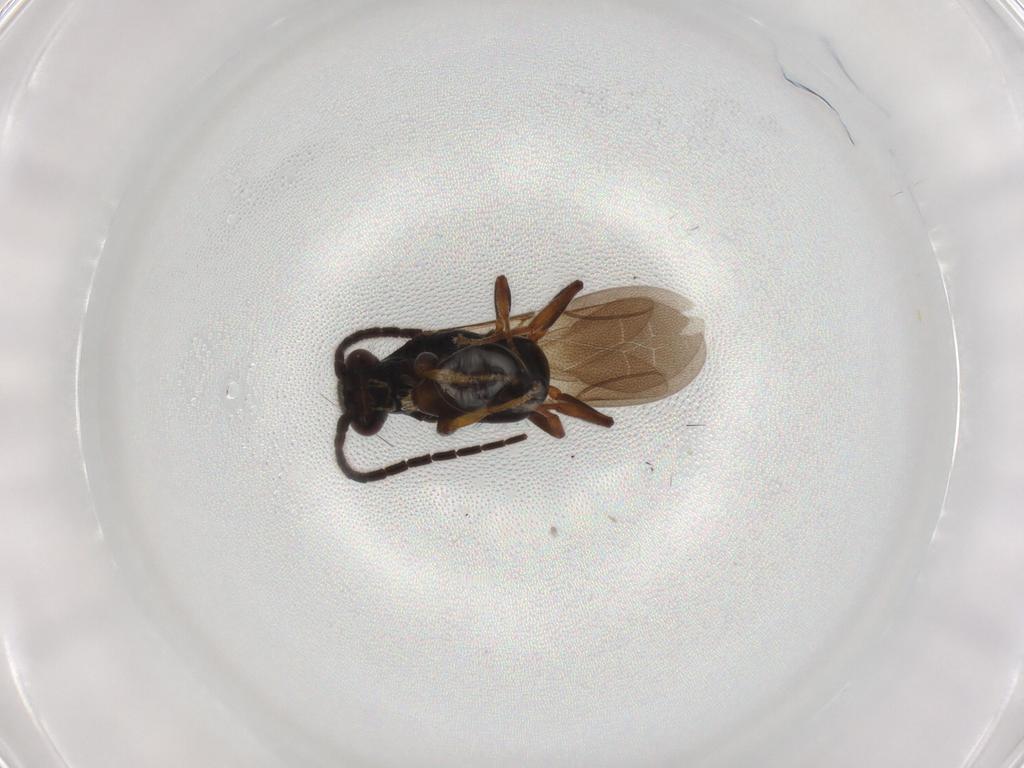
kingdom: Animalia
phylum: Arthropoda
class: Insecta
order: Hymenoptera
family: Bethylidae
